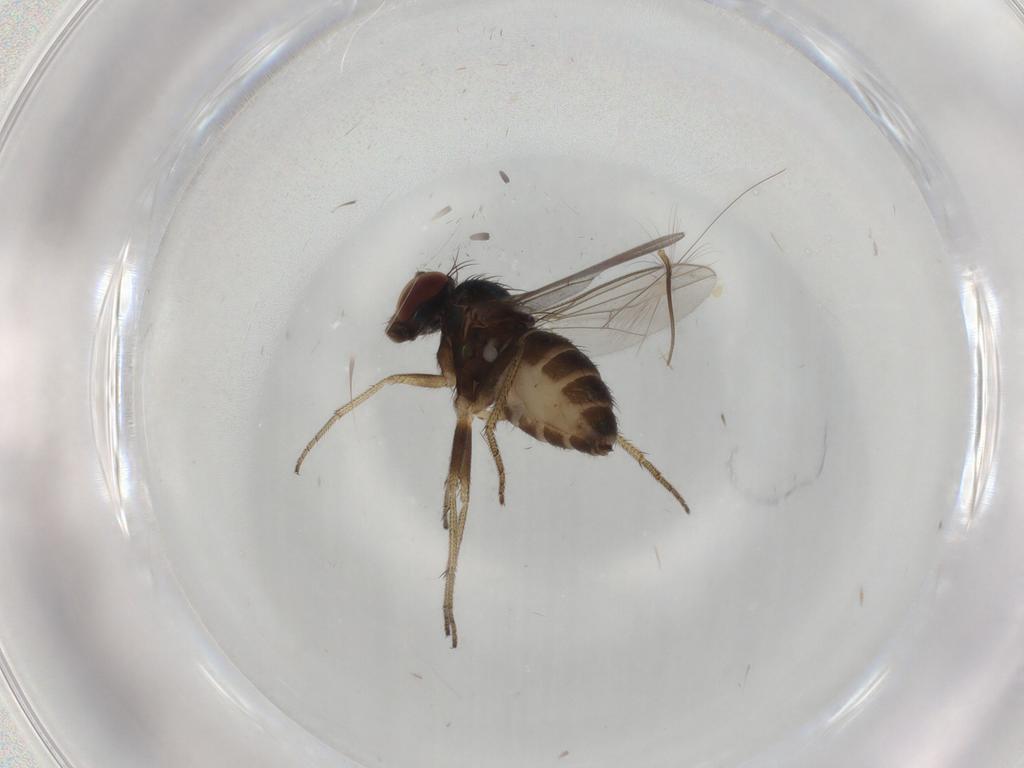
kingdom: Animalia
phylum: Arthropoda
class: Insecta
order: Diptera
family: Chironomidae
